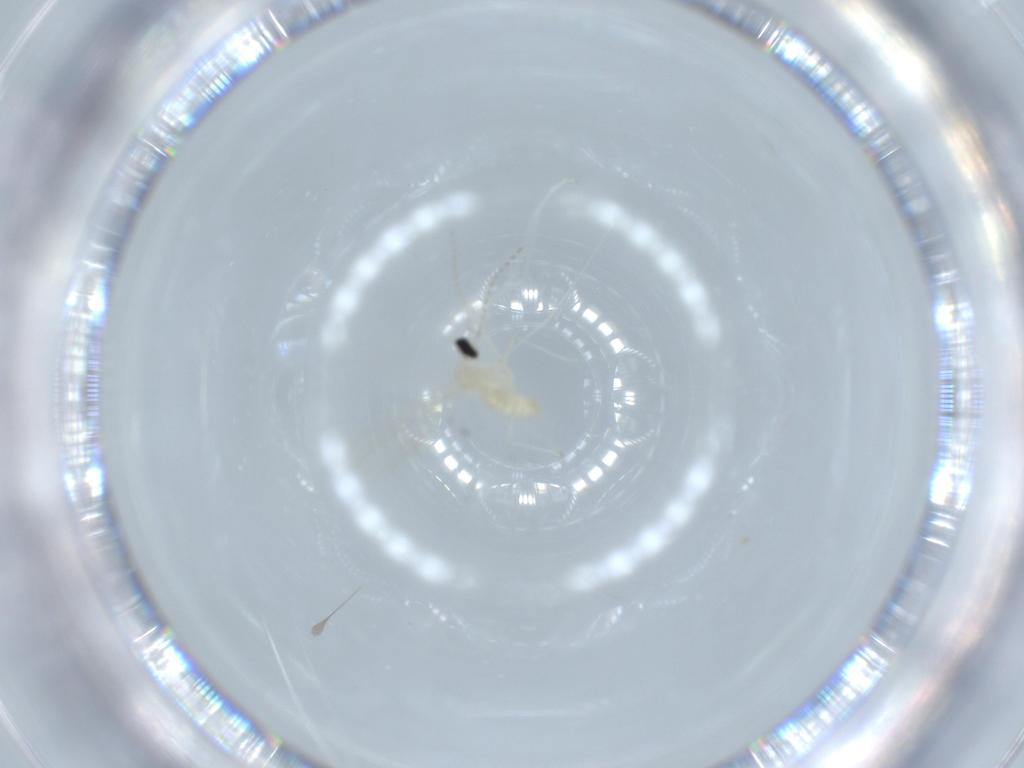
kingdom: Animalia
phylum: Arthropoda
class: Insecta
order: Diptera
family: Cecidomyiidae
